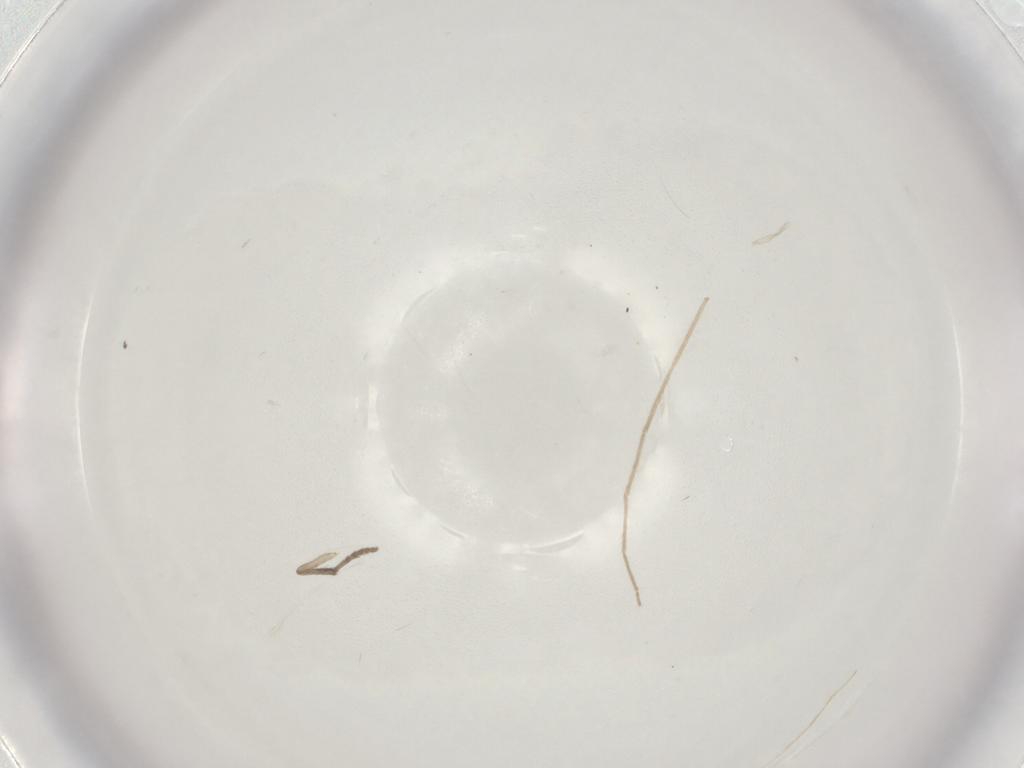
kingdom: Animalia
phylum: Arthropoda
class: Insecta
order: Diptera
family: Psychodidae
